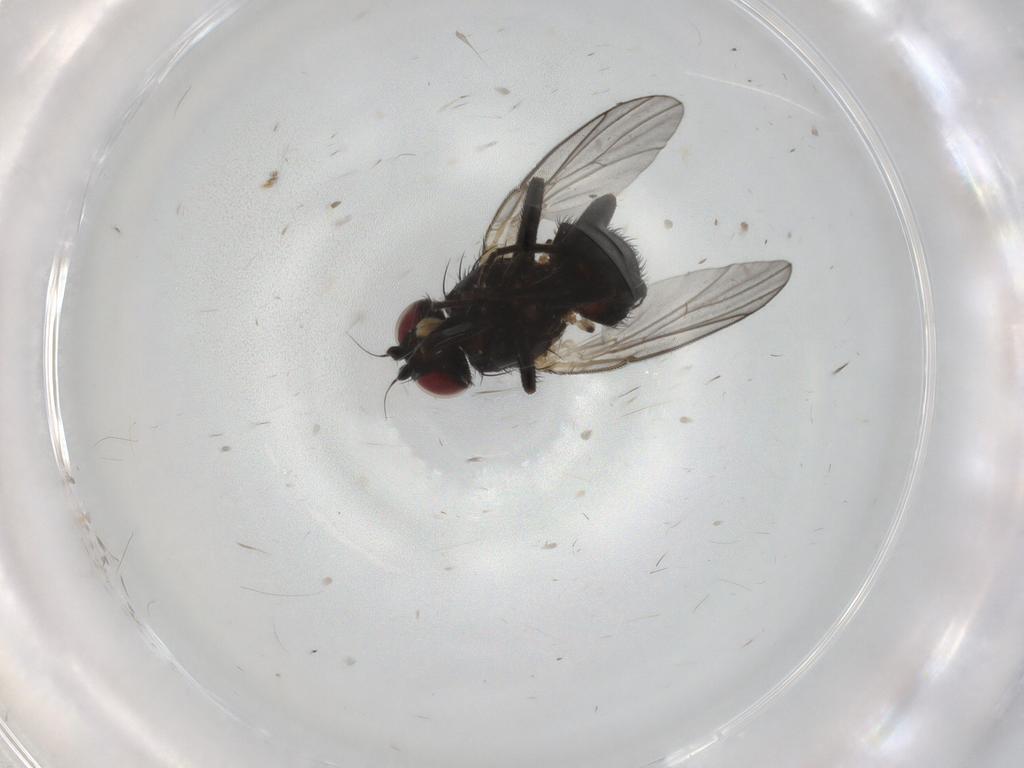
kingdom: Animalia
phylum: Arthropoda
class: Insecta
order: Diptera
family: Agromyzidae
